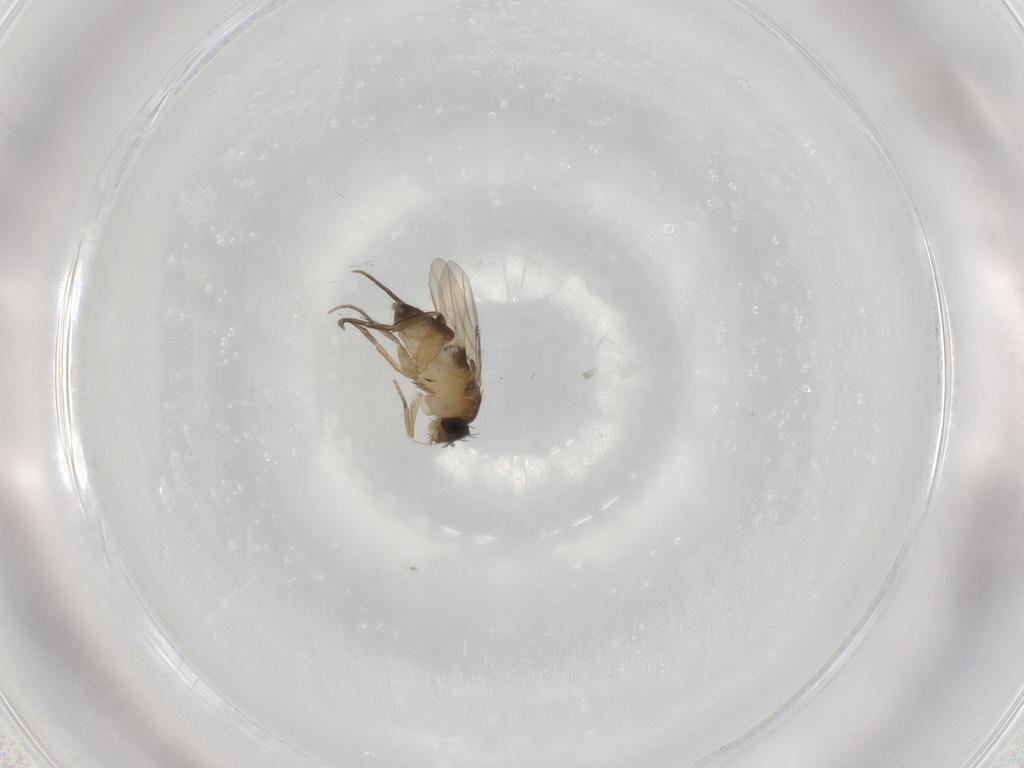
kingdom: Animalia
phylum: Arthropoda
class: Insecta
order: Diptera
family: Phoridae
